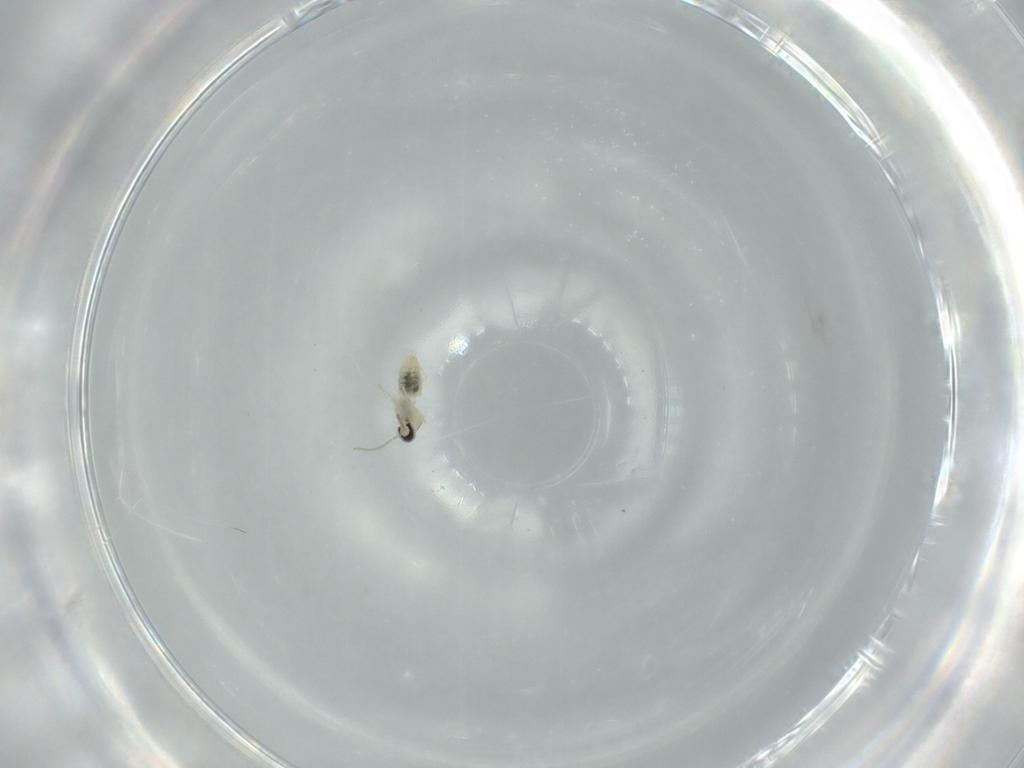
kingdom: Animalia
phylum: Arthropoda
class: Insecta
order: Diptera
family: Cecidomyiidae
